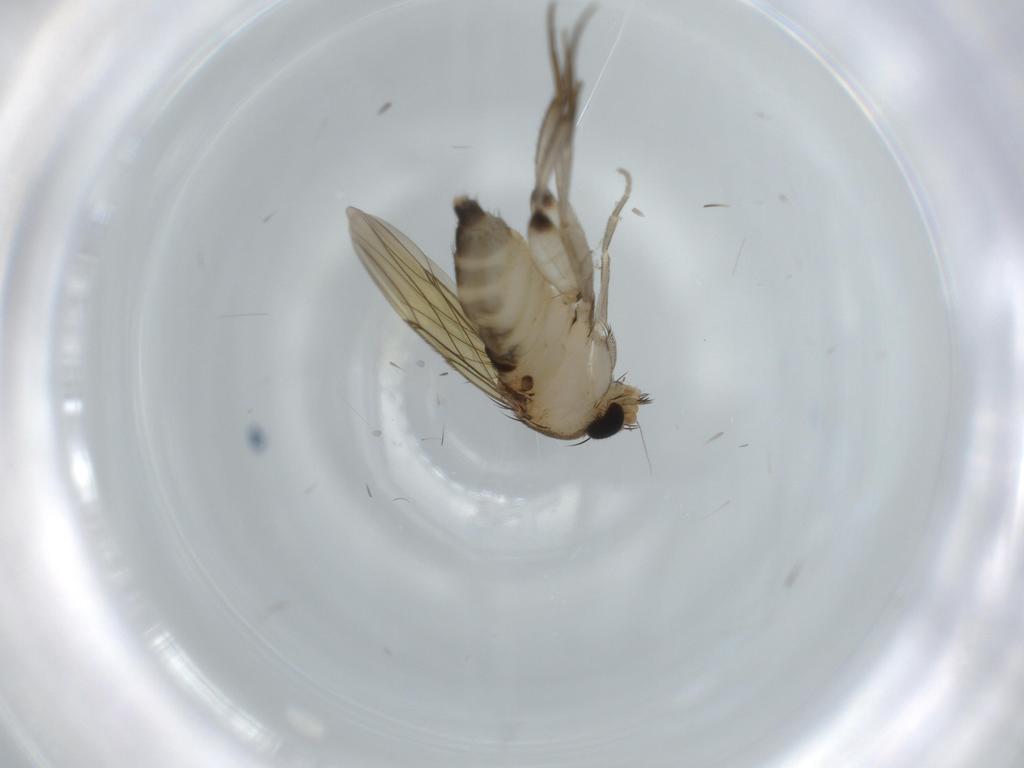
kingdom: Animalia
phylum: Arthropoda
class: Insecta
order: Diptera
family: Phoridae
